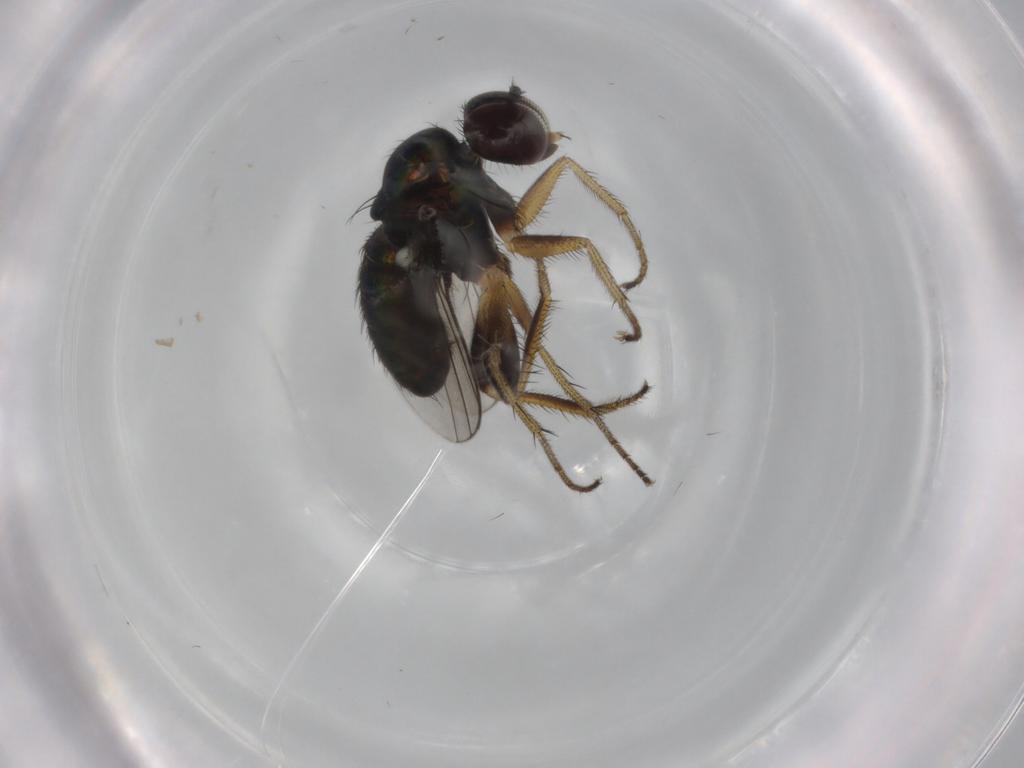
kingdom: Animalia
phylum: Arthropoda
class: Insecta
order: Diptera
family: Dolichopodidae
